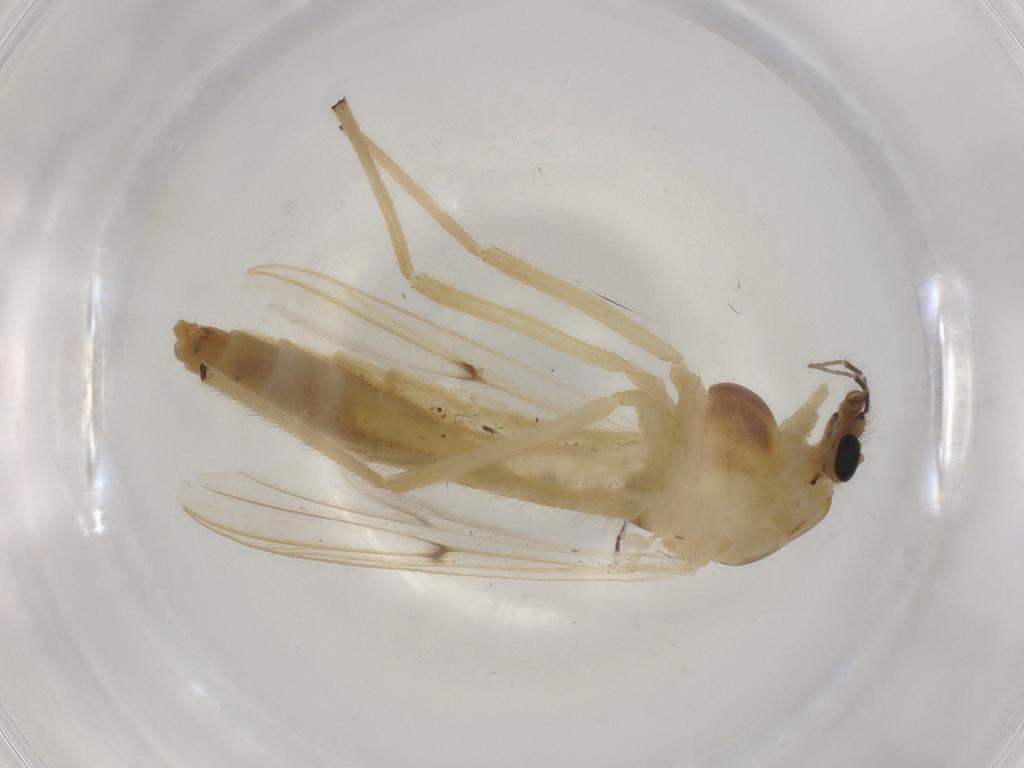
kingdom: Animalia
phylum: Arthropoda
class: Insecta
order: Diptera
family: Chironomidae
